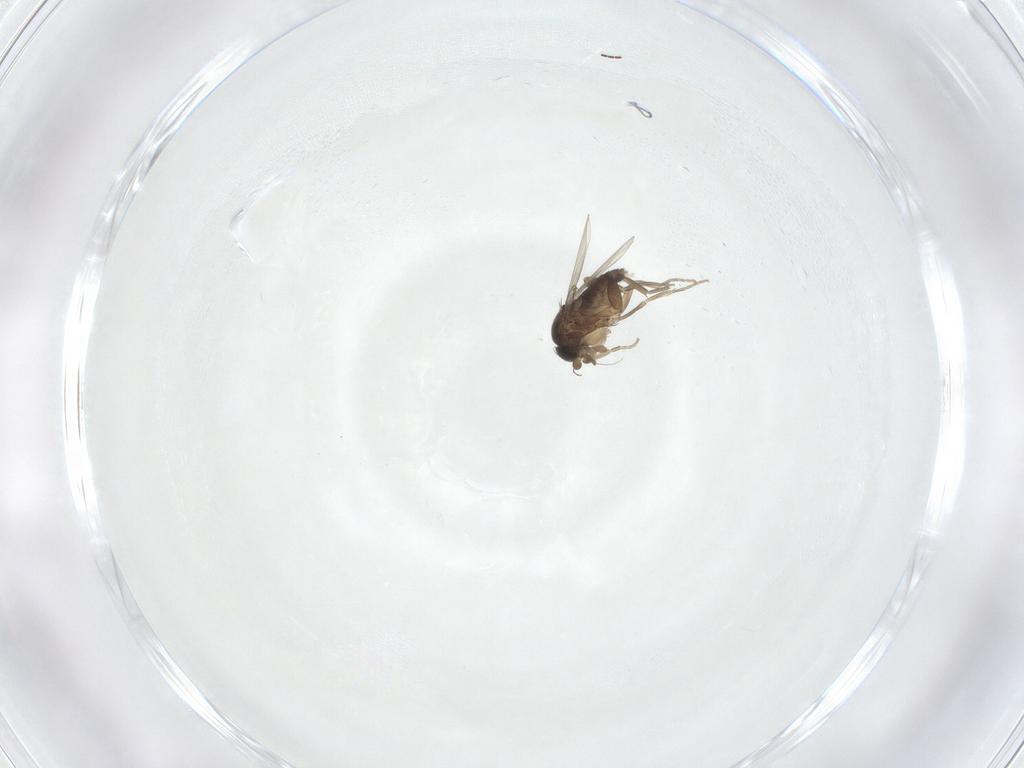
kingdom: Animalia
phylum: Arthropoda
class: Insecta
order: Diptera
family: Phoridae
